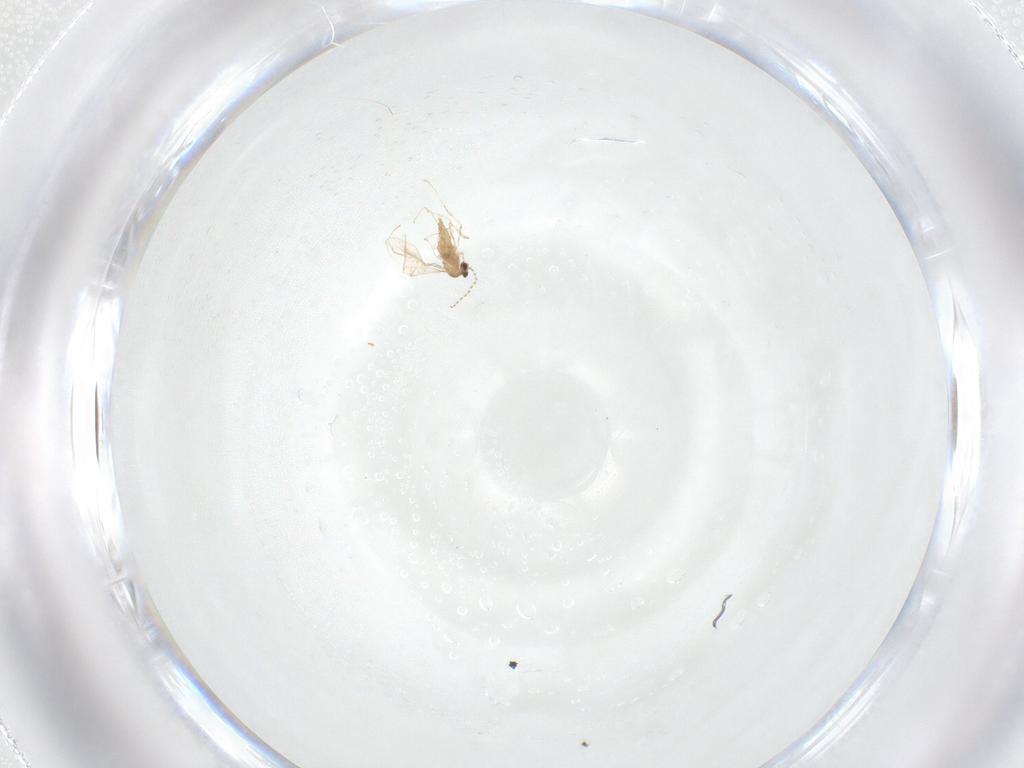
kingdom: Animalia
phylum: Arthropoda
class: Insecta
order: Diptera
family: Cecidomyiidae
